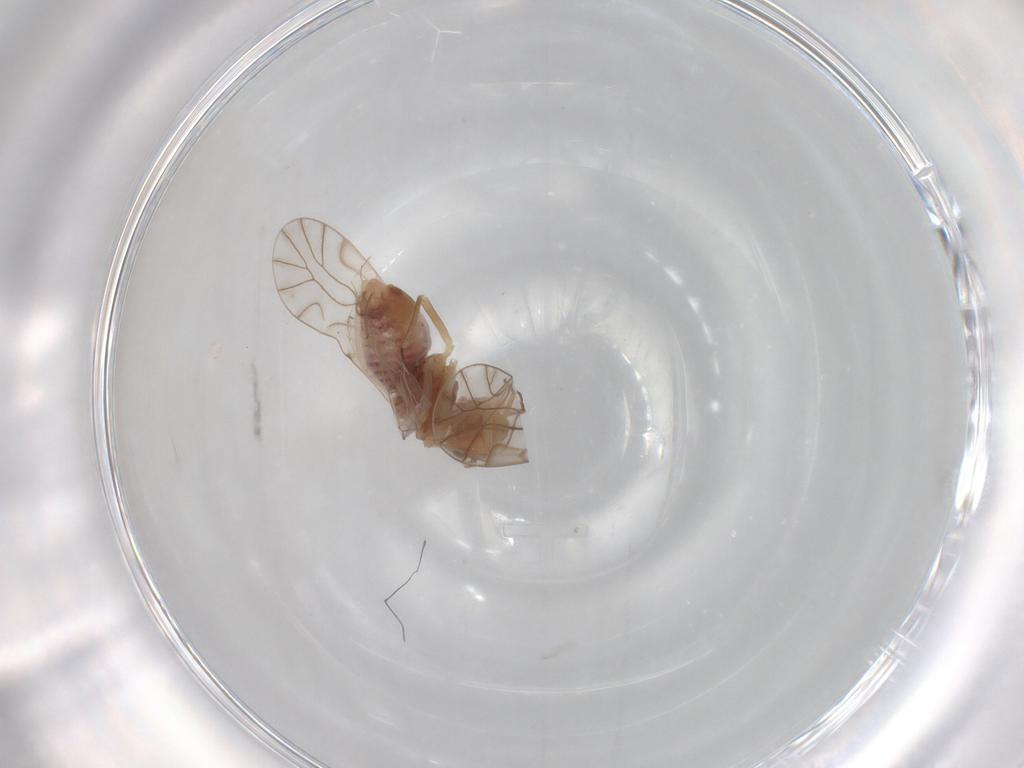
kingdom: Animalia
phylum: Arthropoda
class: Insecta
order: Psocodea
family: Lachesillidae
